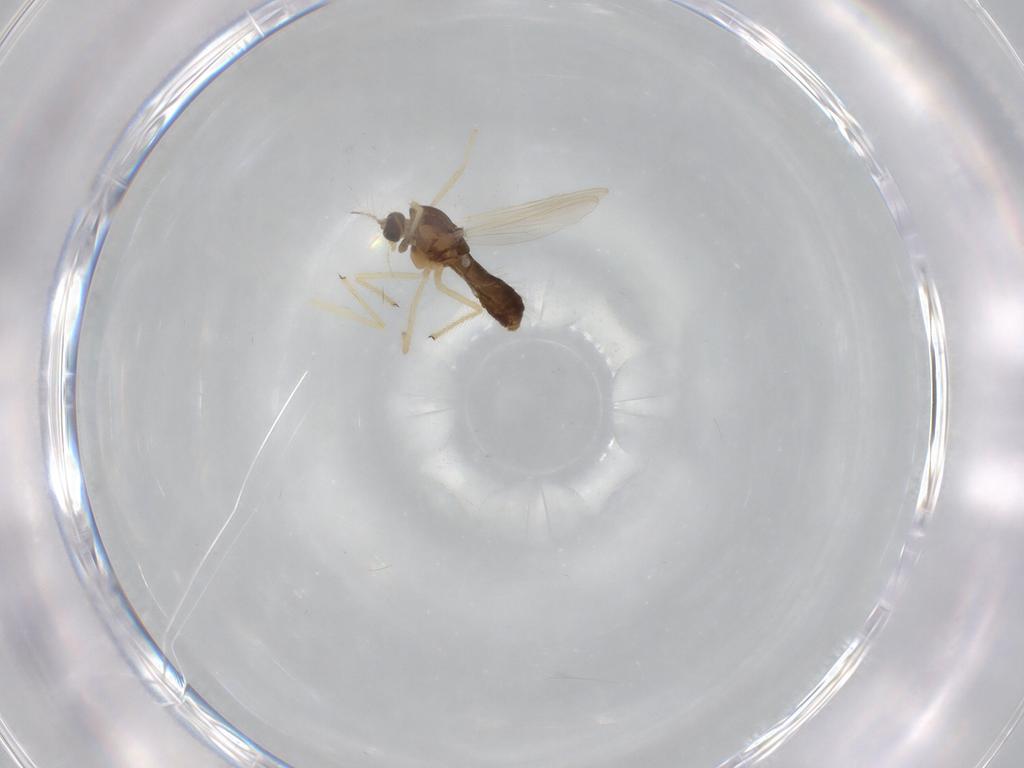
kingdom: Animalia
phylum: Arthropoda
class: Insecta
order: Diptera
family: Chironomidae
